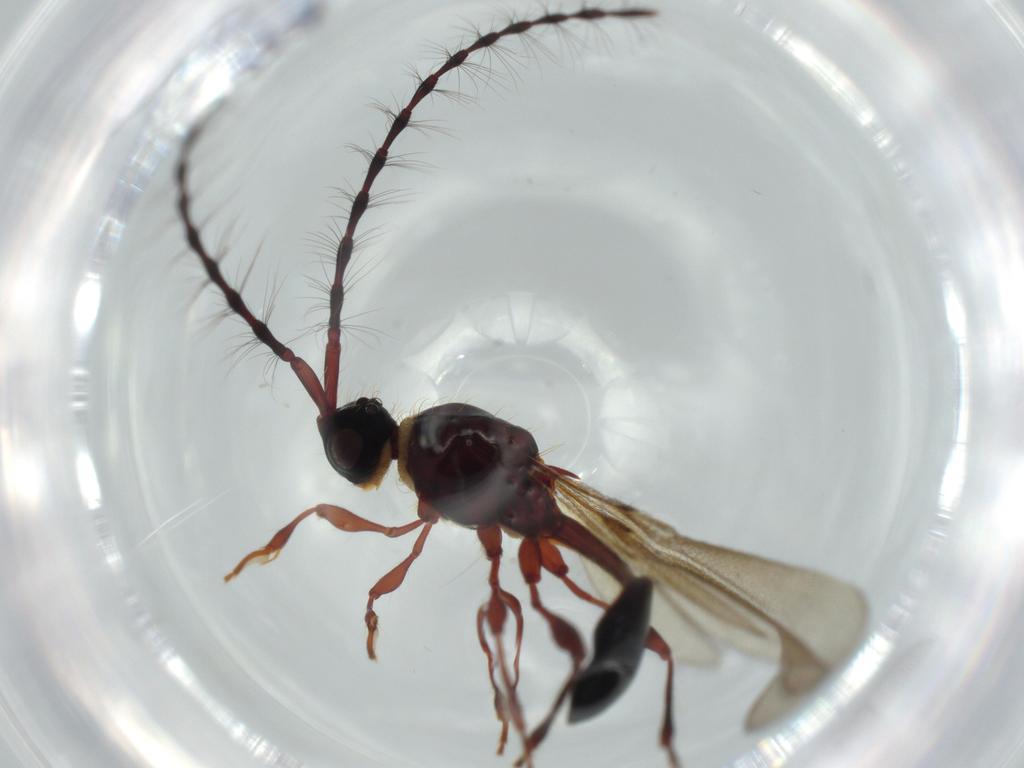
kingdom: Animalia
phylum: Arthropoda
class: Insecta
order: Hymenoptera
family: Diapriidae
